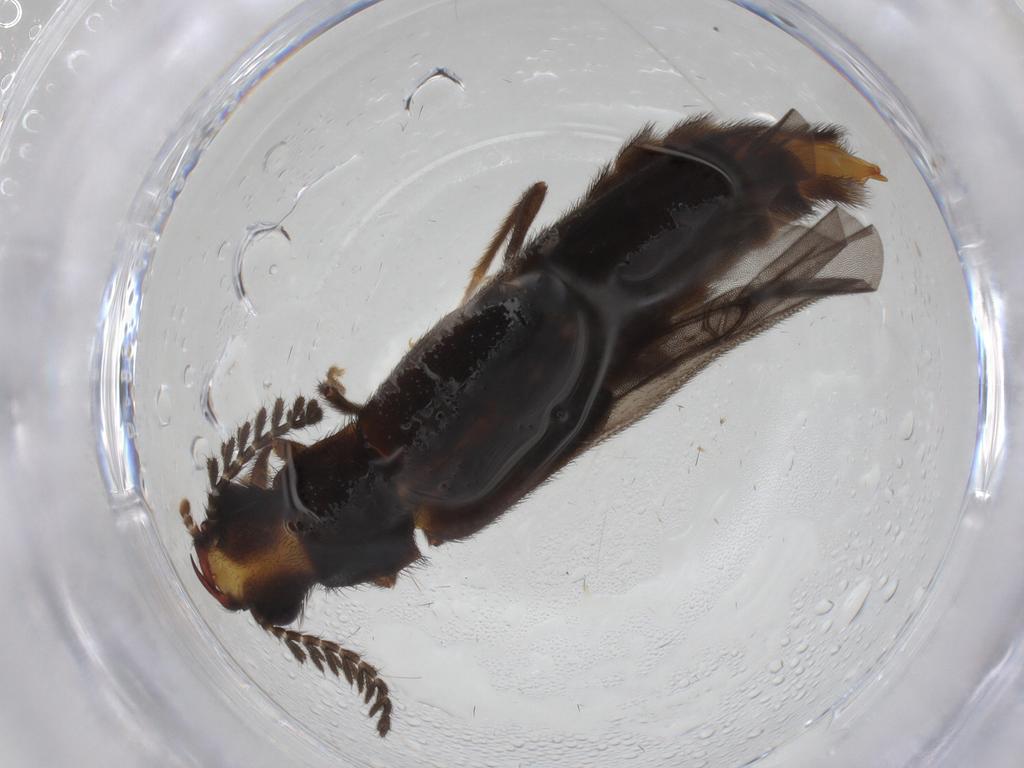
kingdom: Animalia
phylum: Arthropoda
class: Insecta
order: Coleoptera
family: Phengodidae
